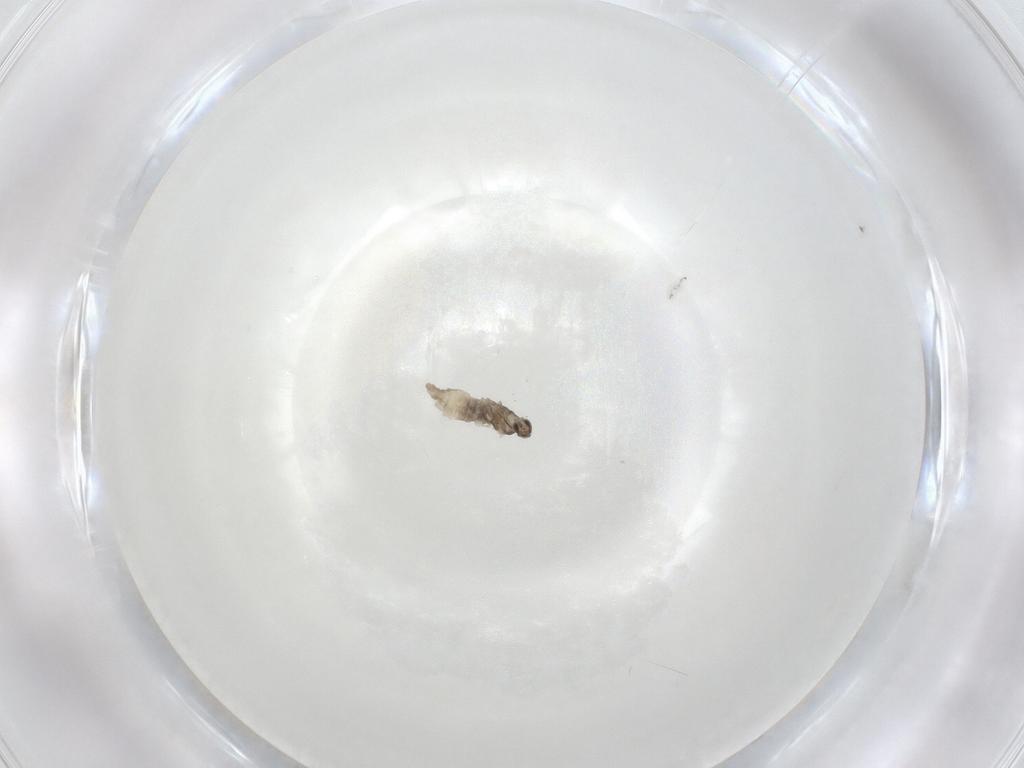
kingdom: Animalia
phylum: Arthropoda
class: Insecta
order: Diptera
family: Cecidomyiidae
